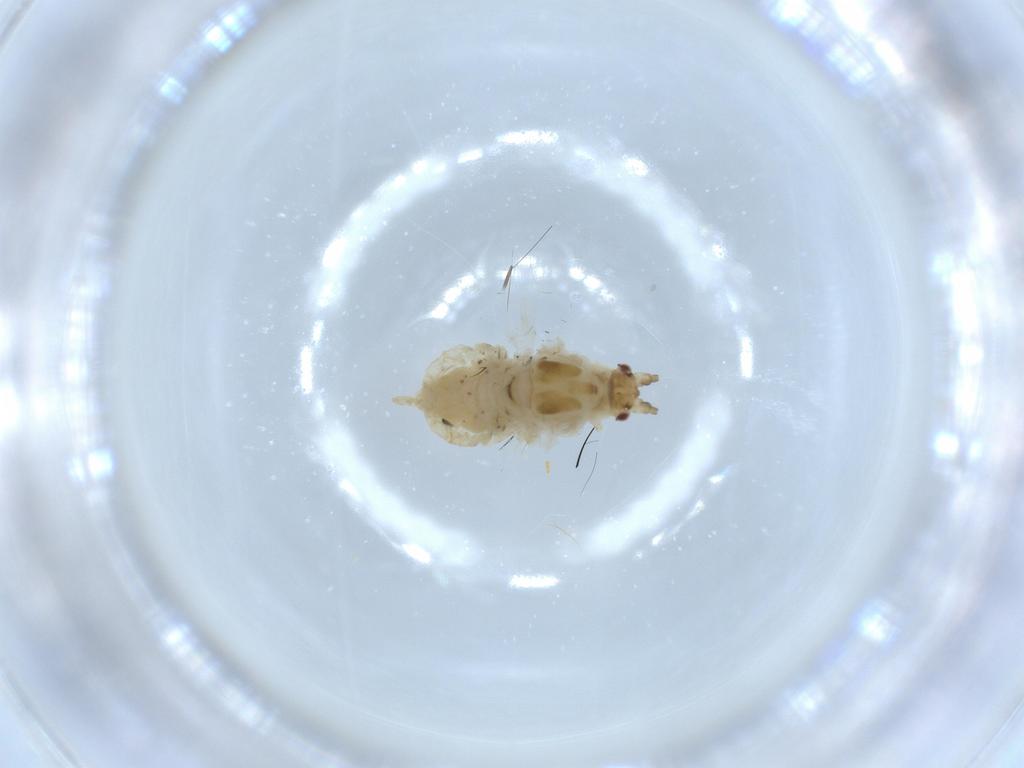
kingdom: Animalia
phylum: Arthropoda
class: Insecta
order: Hemiptera
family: Aphididae
